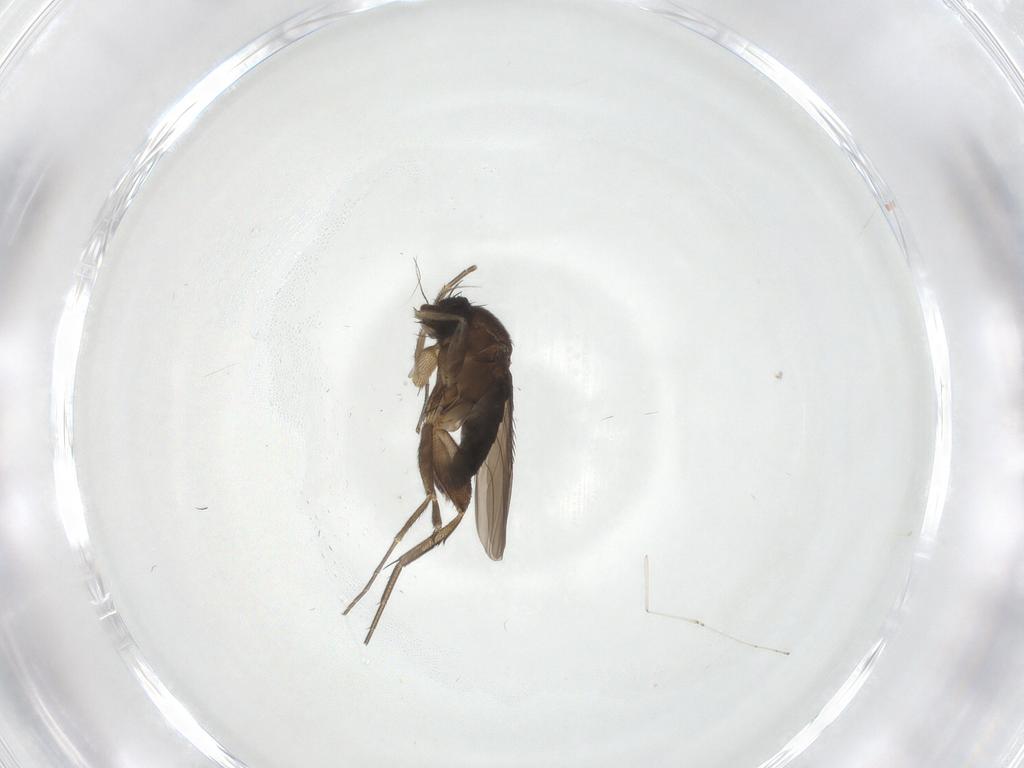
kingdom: Animalia
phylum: Arthropoda
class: Insecta
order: Diptera
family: Phoridae
